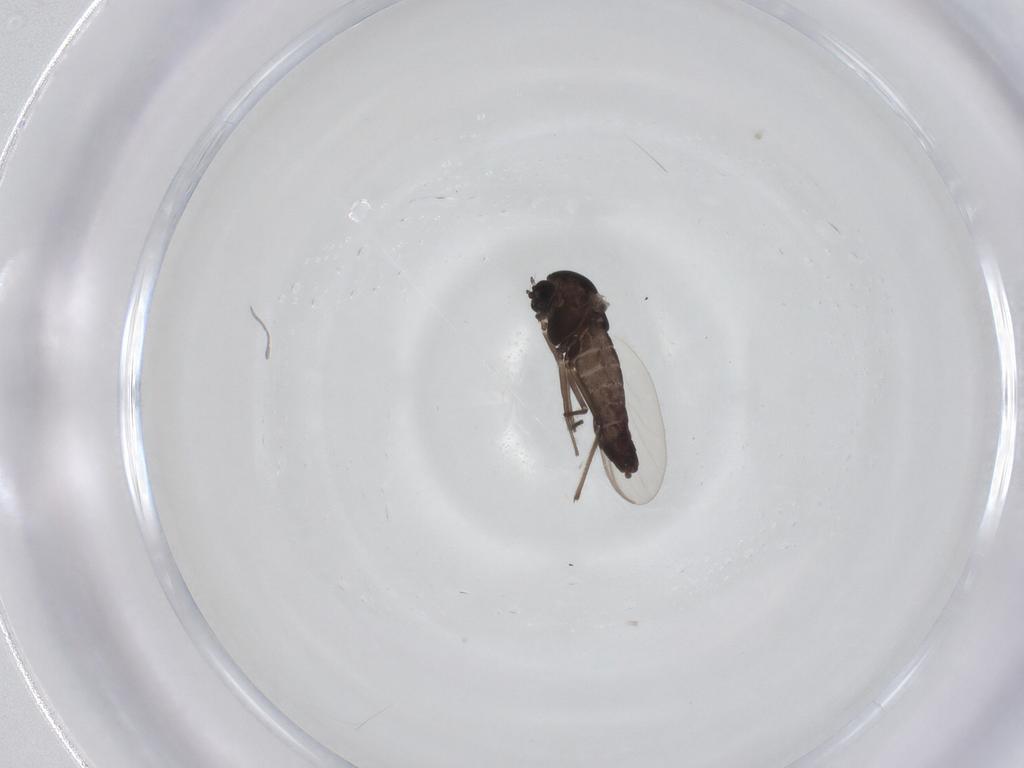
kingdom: Animalia
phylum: Arthropoda
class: Insecta
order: Diptera
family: Chironomidae
